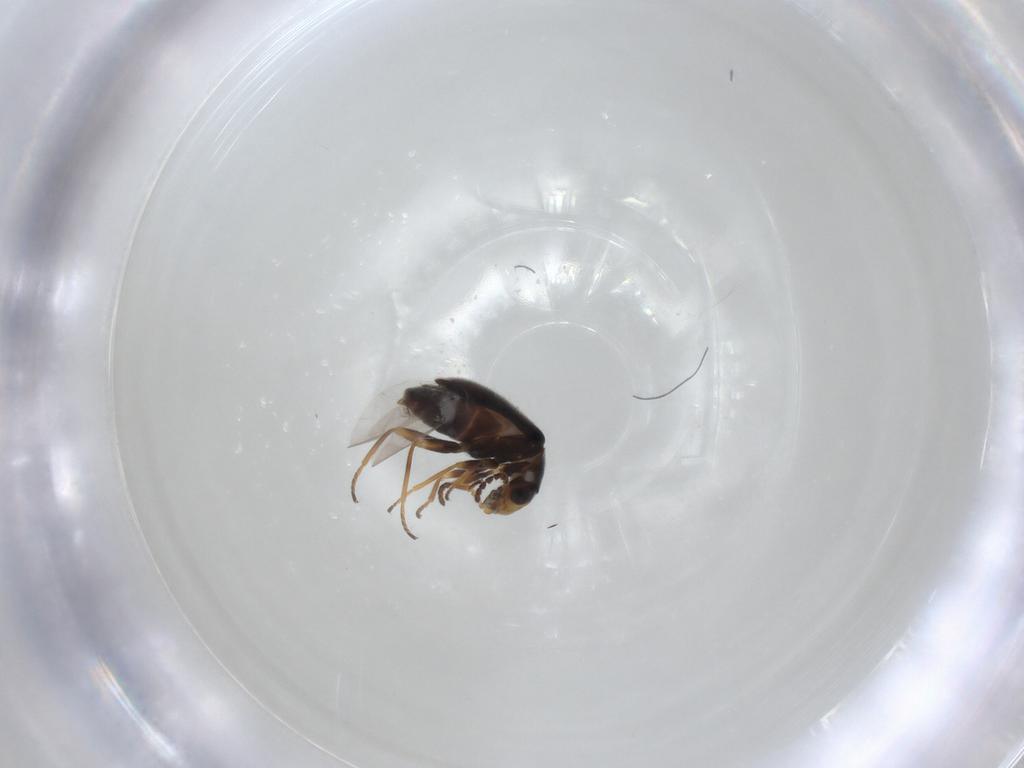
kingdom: Animalia
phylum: Arthropoda
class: Insecta
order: Coleoptera
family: Melyridae
